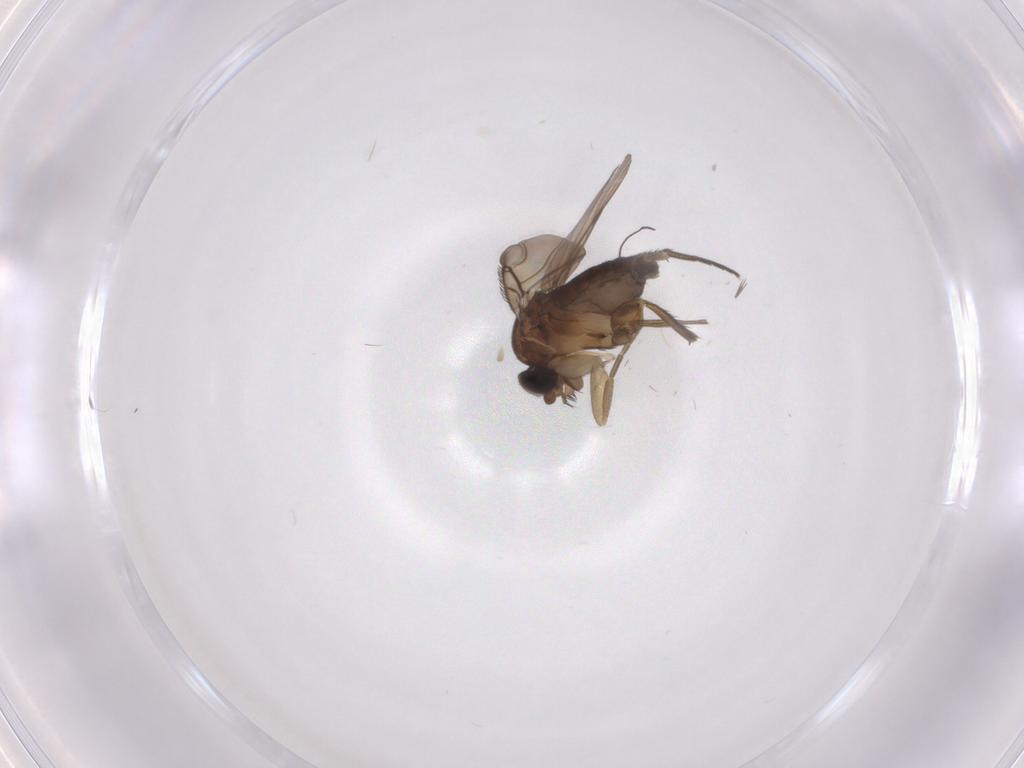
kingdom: Animalia
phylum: Arthropoda
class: Insecta
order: Diptera
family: Phoridae
